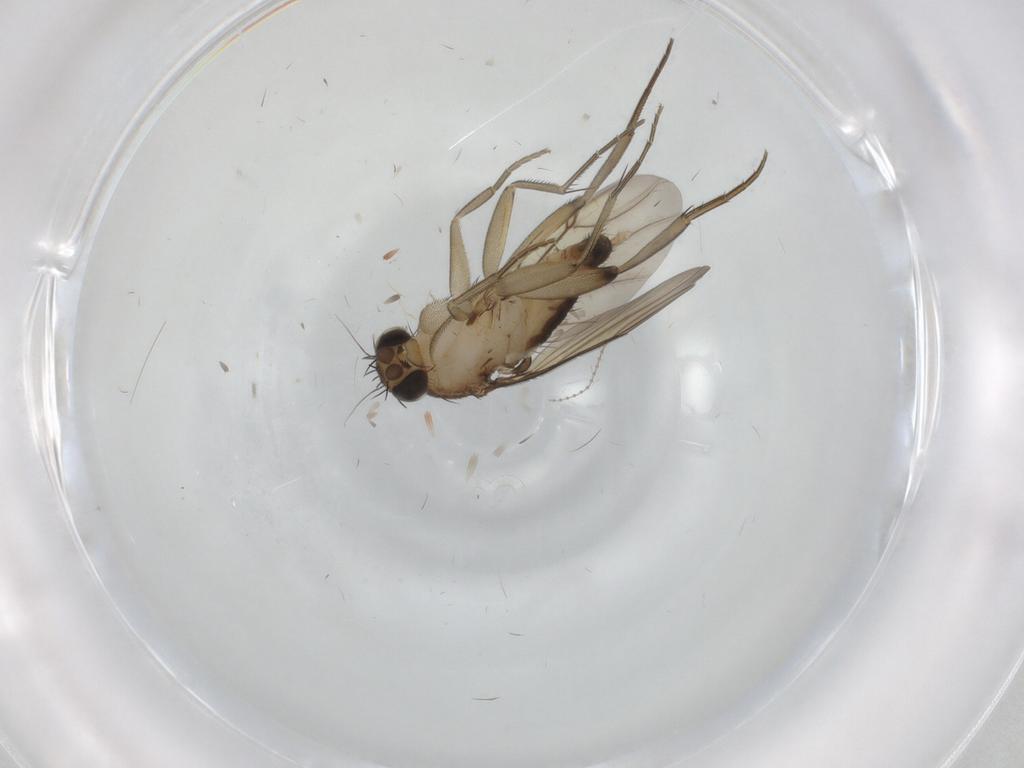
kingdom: Animalia
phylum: Arthropoda
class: Insecta
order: Diptera
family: Phoridae
